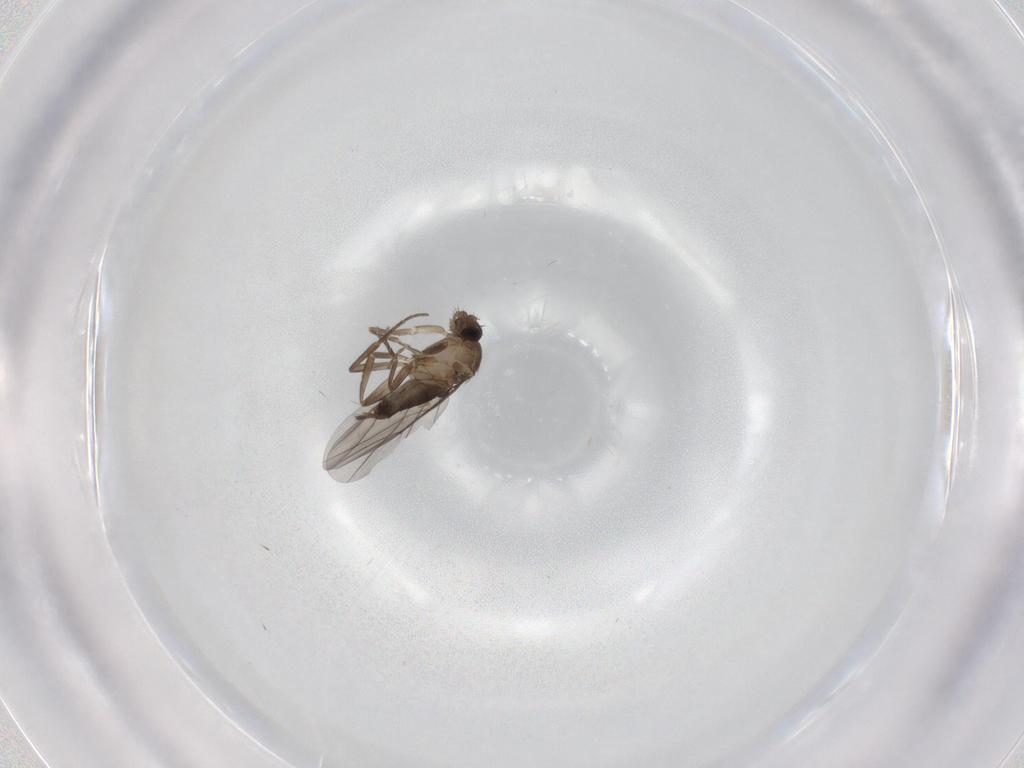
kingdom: Animalia
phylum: Arthropoda
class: Insecta
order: Diptera
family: Phoridae
